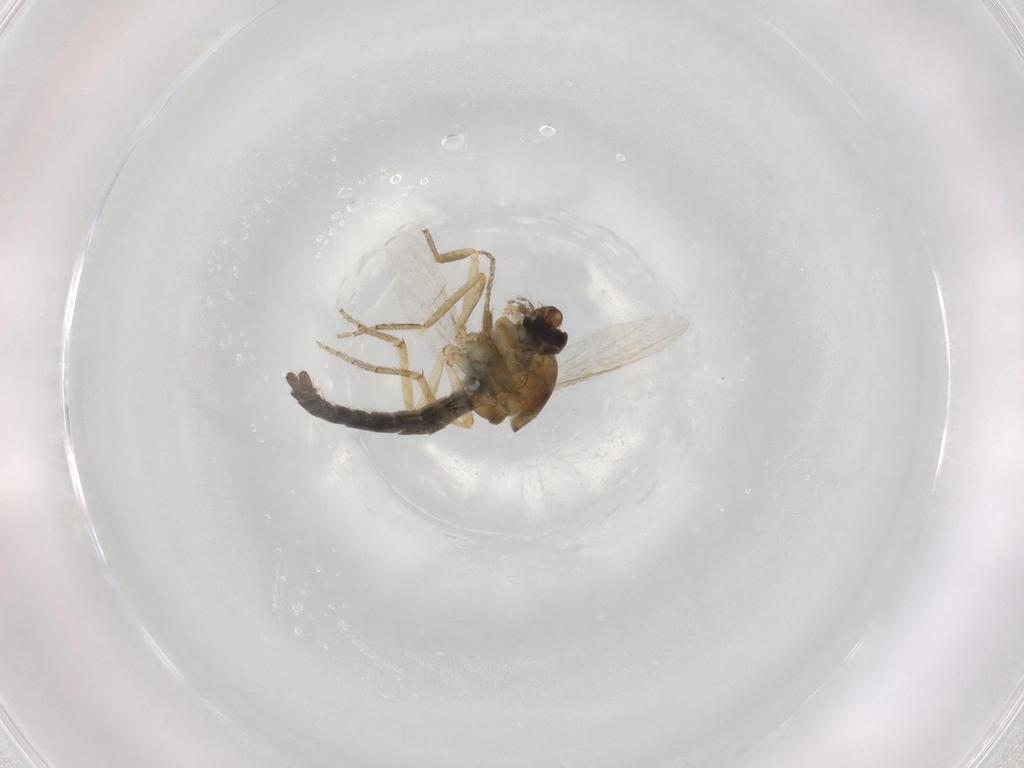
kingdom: Animalia
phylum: Arthropoda
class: Insecta
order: Diptera
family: Ceratopogonidae
